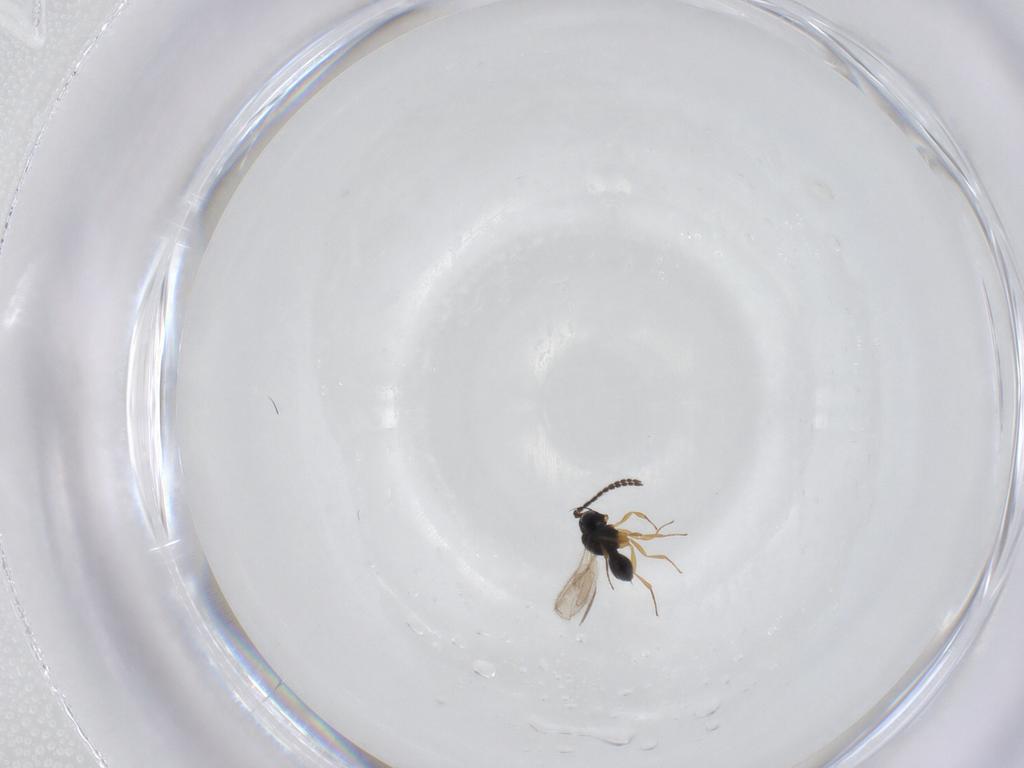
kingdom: Animalia
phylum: Arthropoda
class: Insecta
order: Hymenoptera
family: Scelionidae
